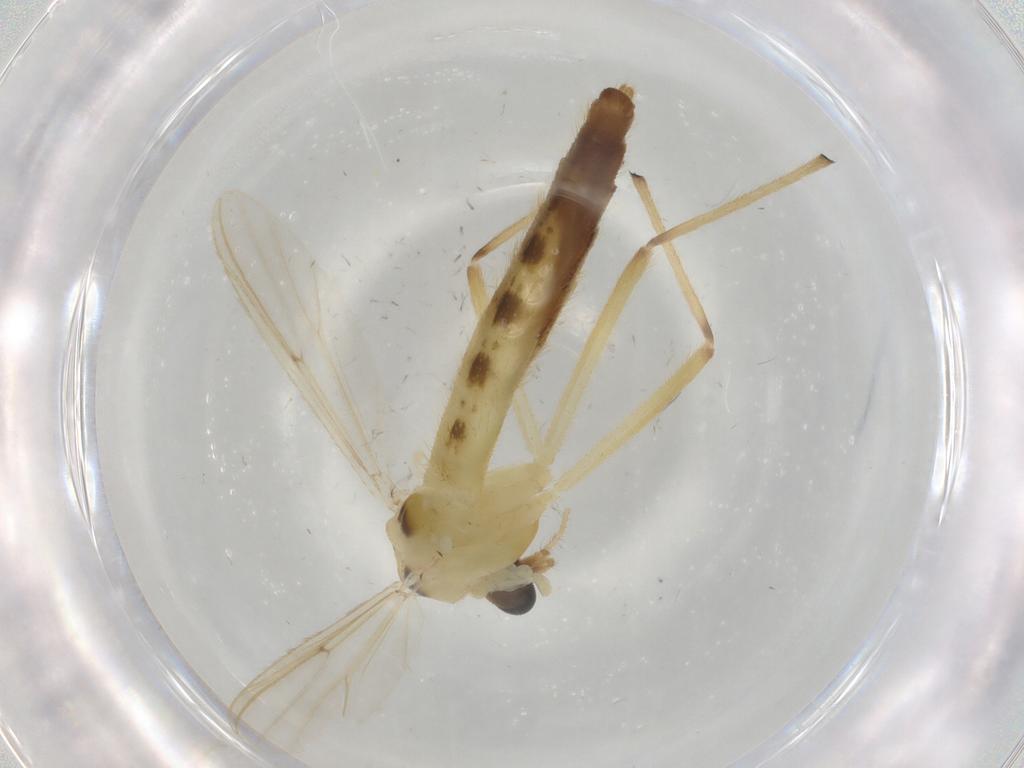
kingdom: Animalia
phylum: Arthropoda
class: Insecta
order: Diptera
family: Chironomidae
